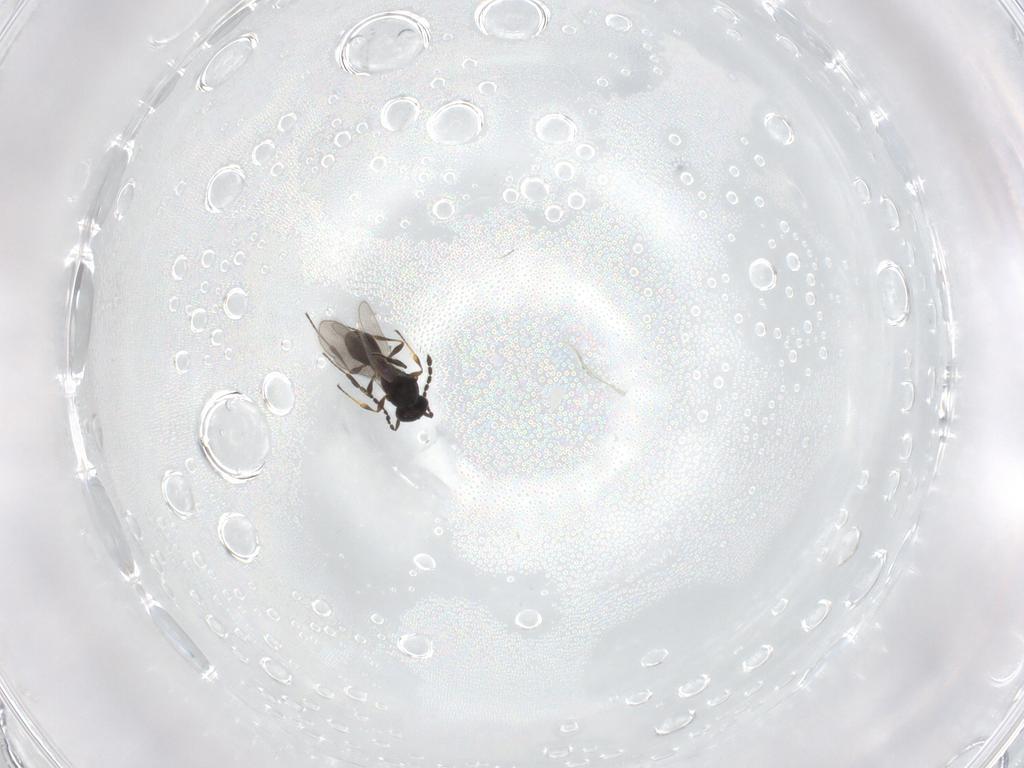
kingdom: Animalia
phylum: Arthropoda
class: Insecta
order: Hymenoptera
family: Platygastridae
